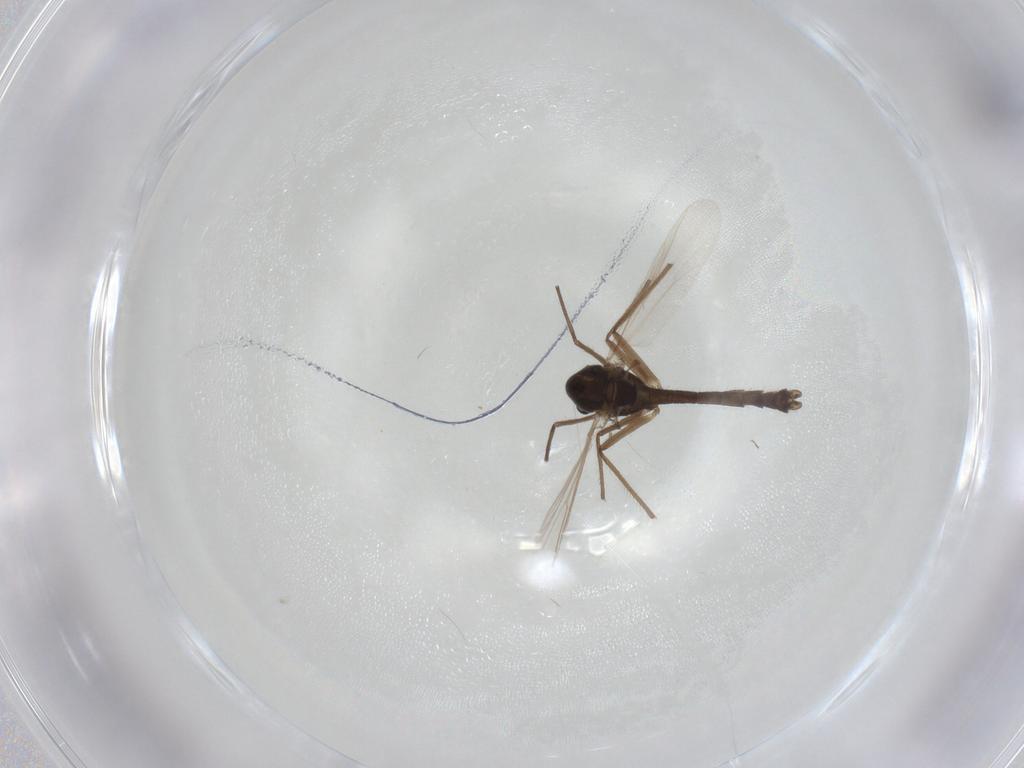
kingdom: Animalia
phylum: Arthropoda
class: Insecta
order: Diptera
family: Chironomidae
